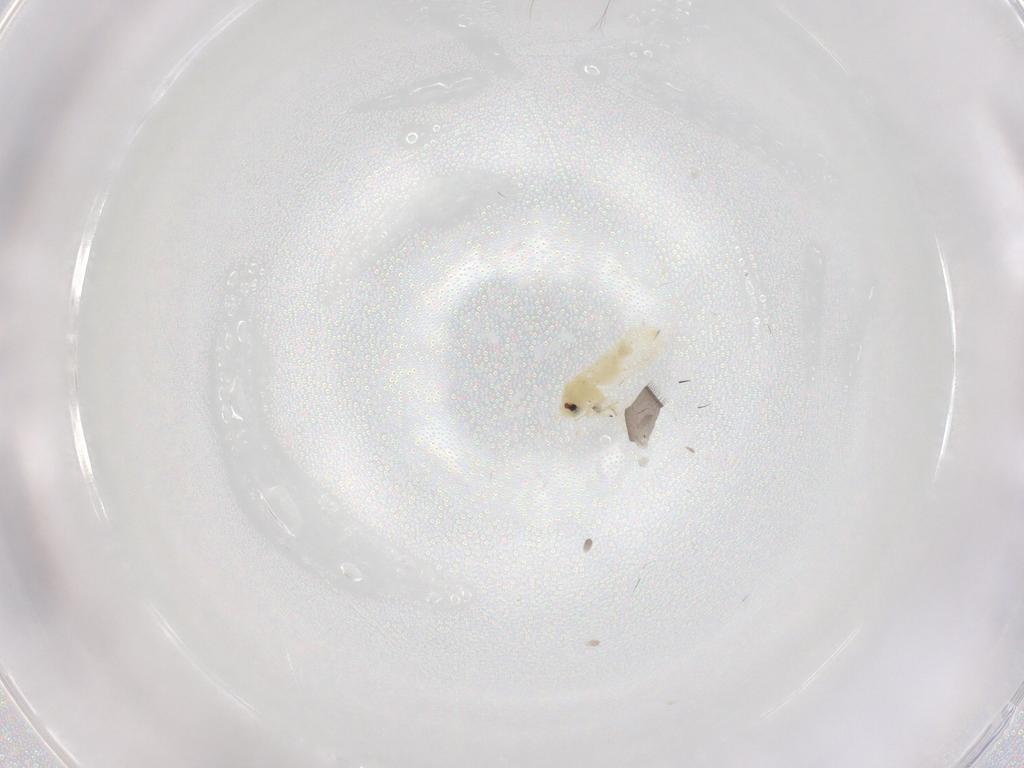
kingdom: Animalia
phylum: Arthropoda
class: Insecta
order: Hemiptera
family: Aleyrodidae
